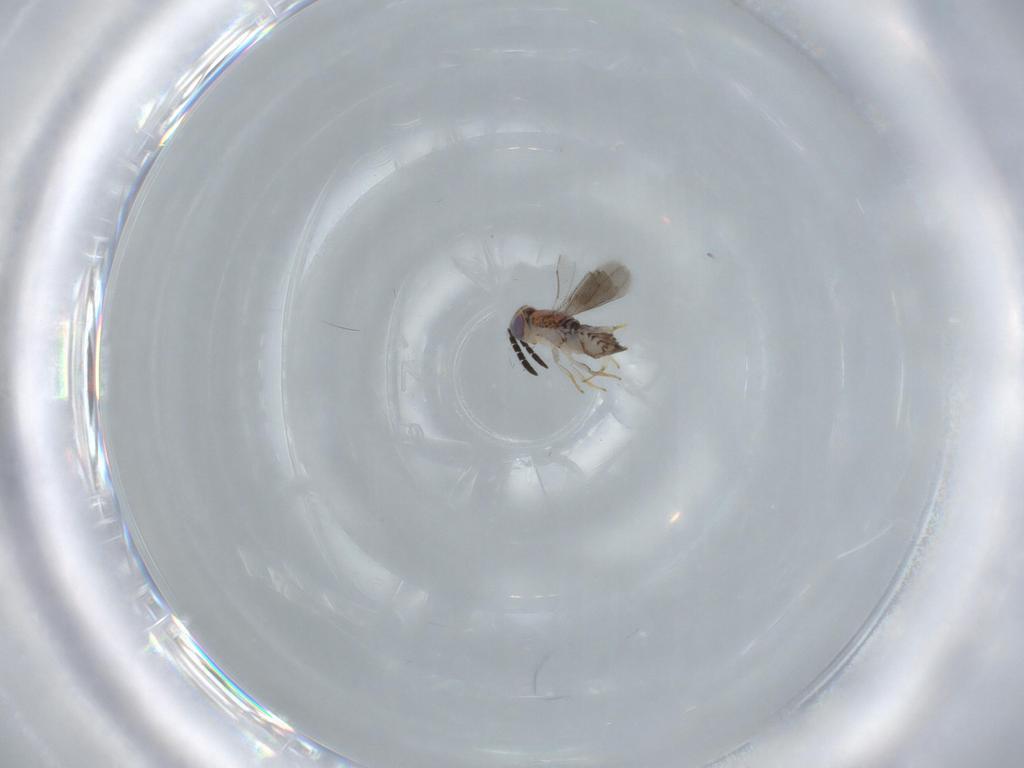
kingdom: Animalia
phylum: Arthropoda
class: Insecta
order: Hymenoptera
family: Aphelinidae
